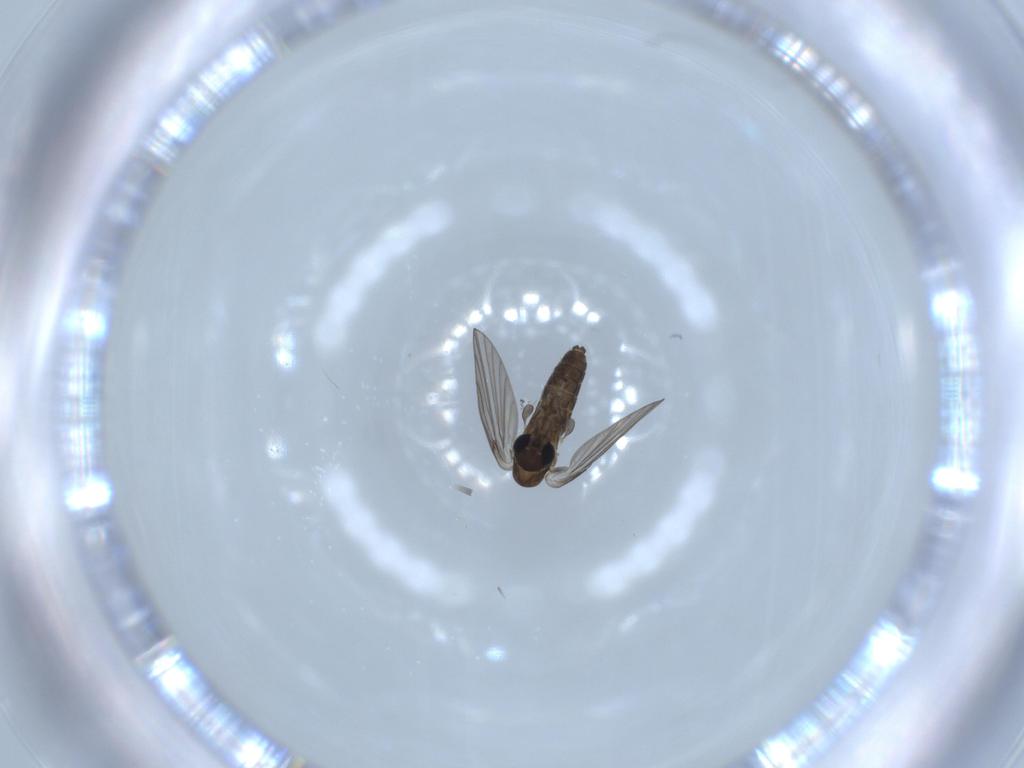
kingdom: Animalia
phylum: Arthropoda
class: Insecta
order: Diptera
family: Psychodidae
